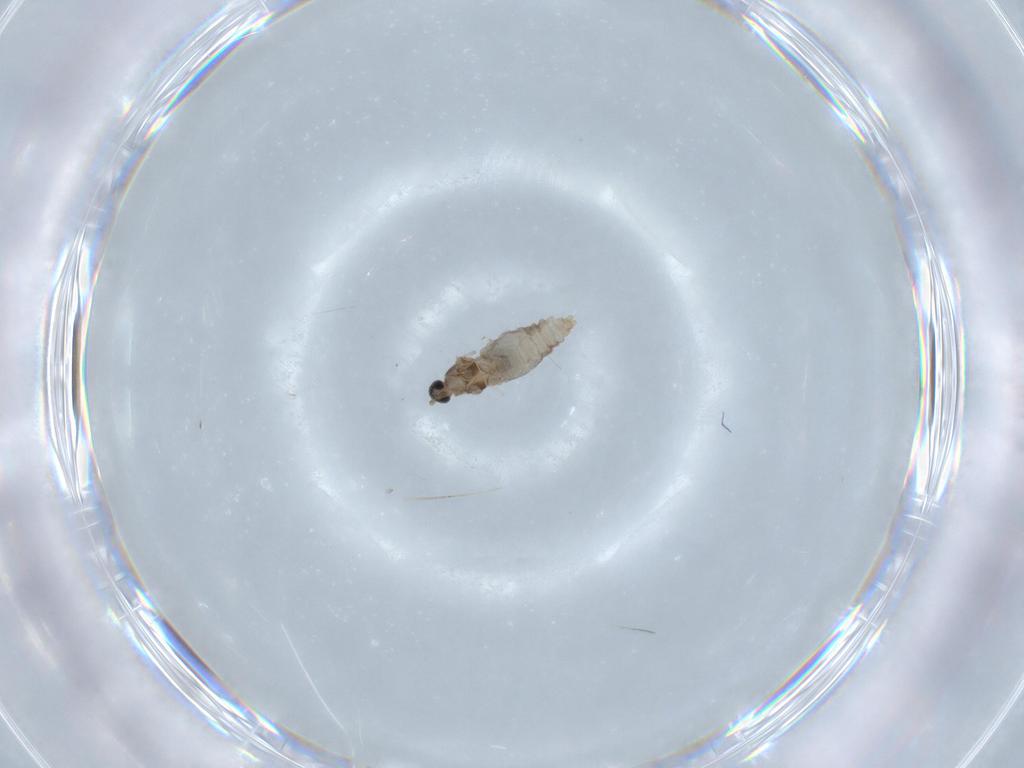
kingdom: Animalia
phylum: Arthropoda
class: Insecta
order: Diptera
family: Cecidomyiidae
